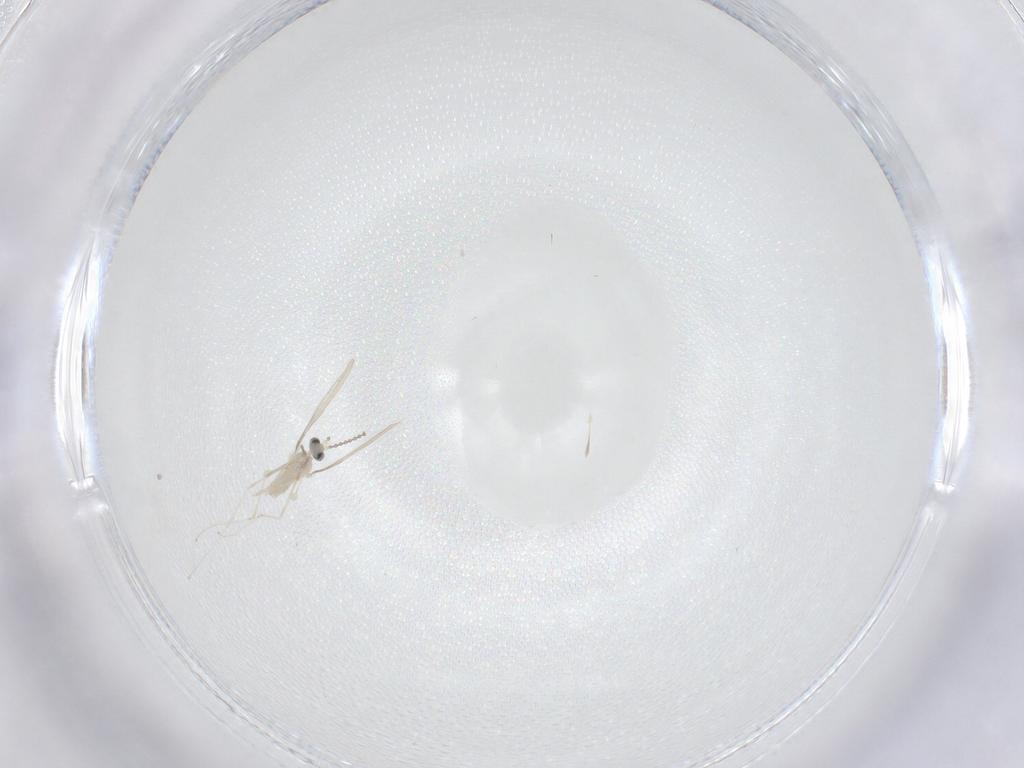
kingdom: Animalia
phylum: Arthropoda
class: Insecta
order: Diptera
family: Cecidomyiidae
